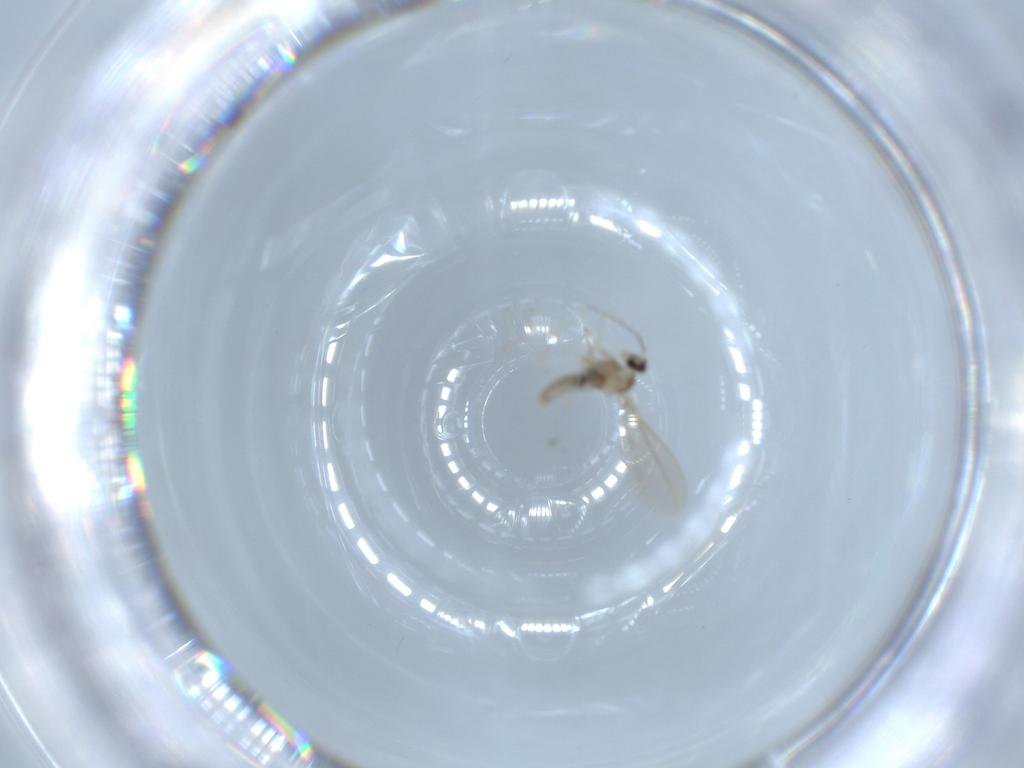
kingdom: Animalia
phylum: Arthropoda
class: Insecta
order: Diptera
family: Cecidomyiidae
